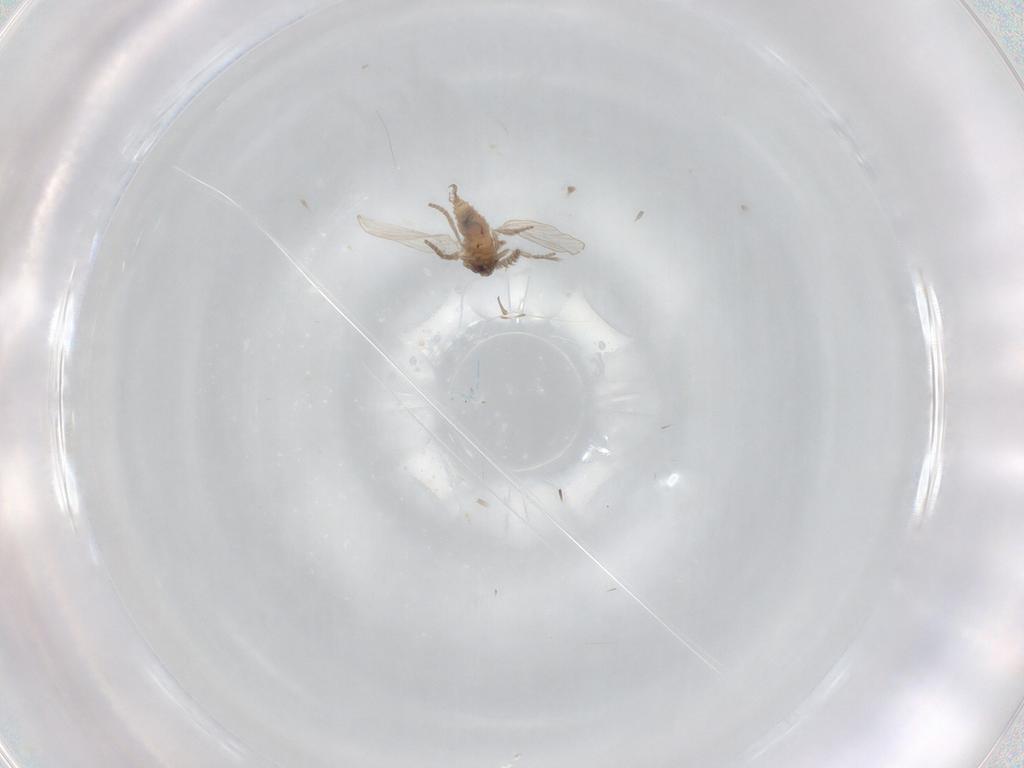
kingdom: Animalia
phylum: Arthropoda
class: Insecta
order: Diptera
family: Psychodidae
